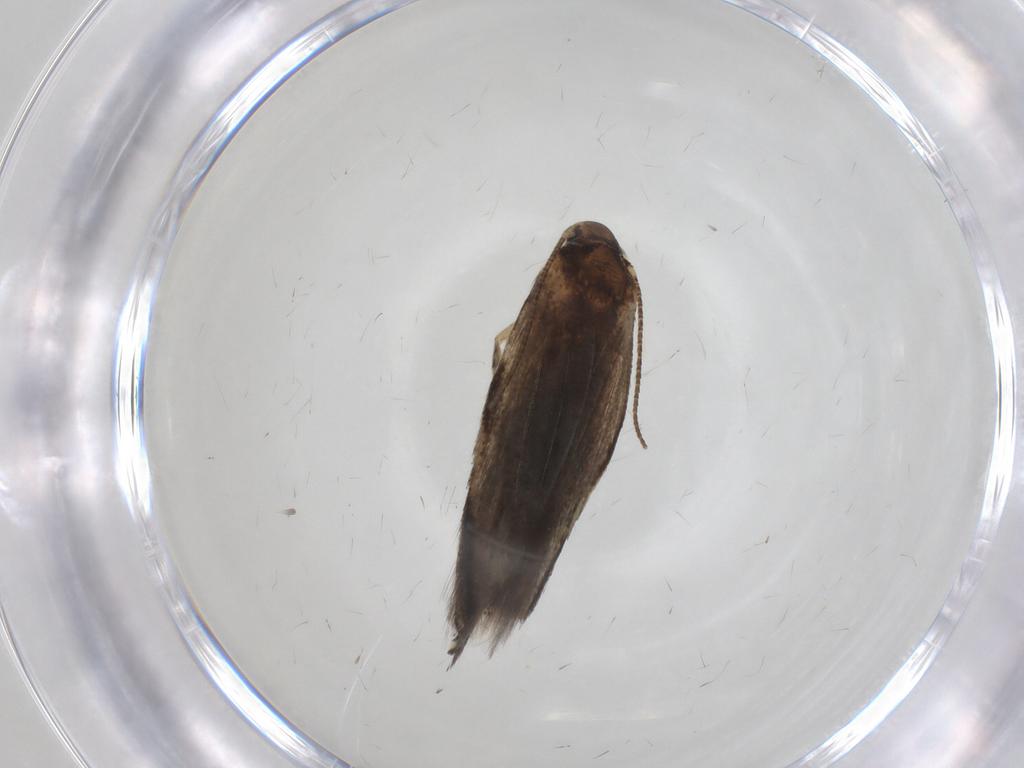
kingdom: Animalia
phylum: Arthropoda
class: Insecta
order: Lepidoptera
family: Elachistidae
